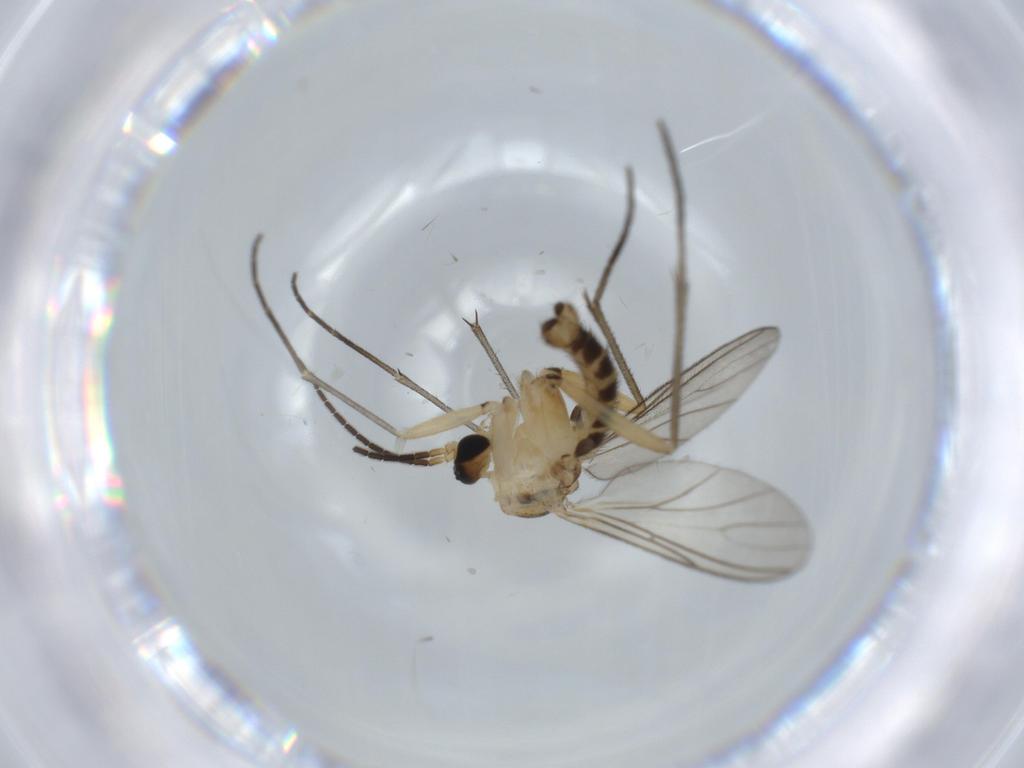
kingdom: Animalia
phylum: Arthropoda
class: Insecta
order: Diptera
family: Sciaridae
